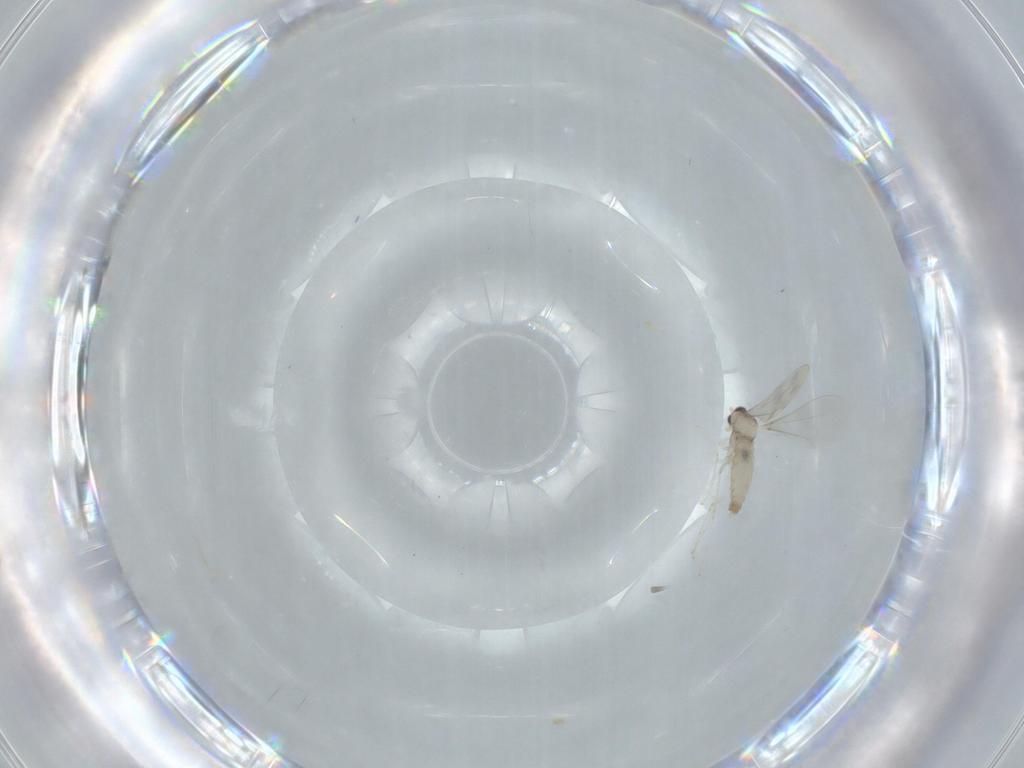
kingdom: Animalia
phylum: Arthropoda
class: Insecta
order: Diptera
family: Cecidomyiidae
